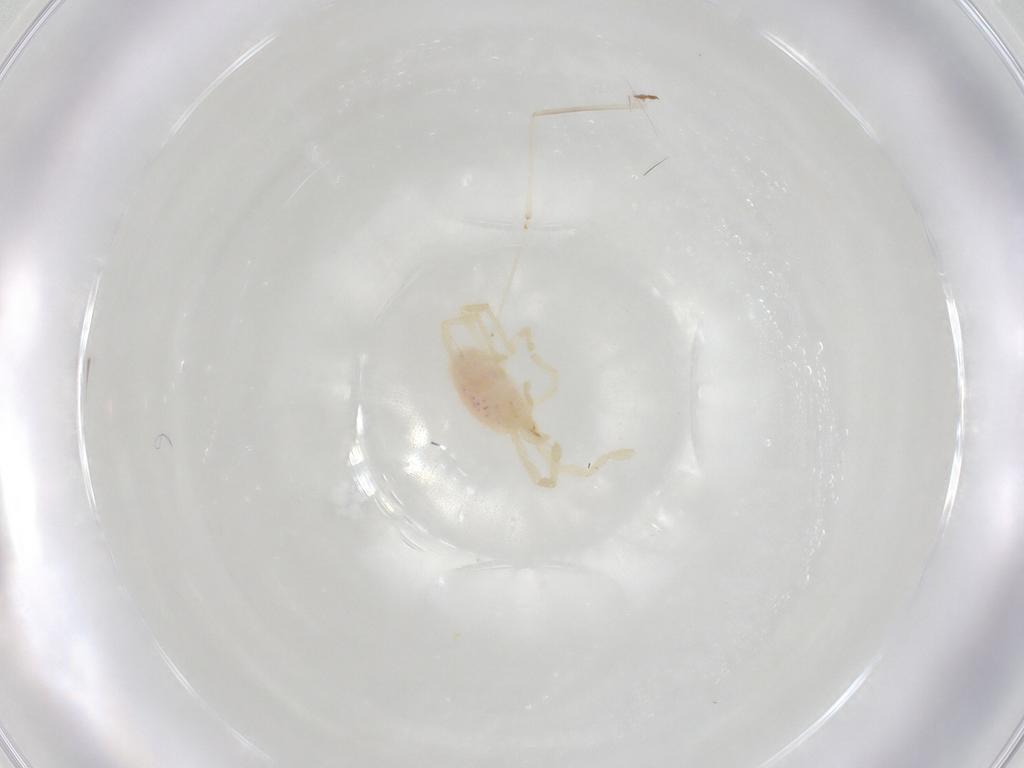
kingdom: Animalia
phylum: Arthropoda
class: Arachnida
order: Trombidiformes
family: Erythraeidae
